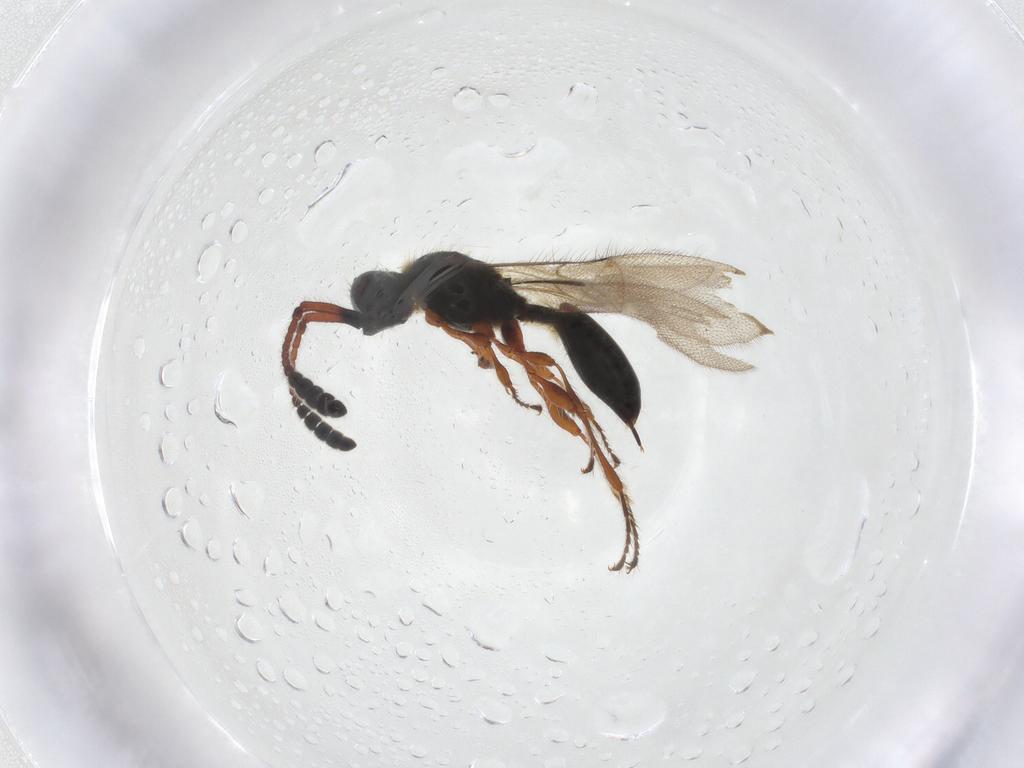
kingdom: Animalia
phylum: Arthropoda
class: Insecta
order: Hymenoptera
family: Diapriidae
